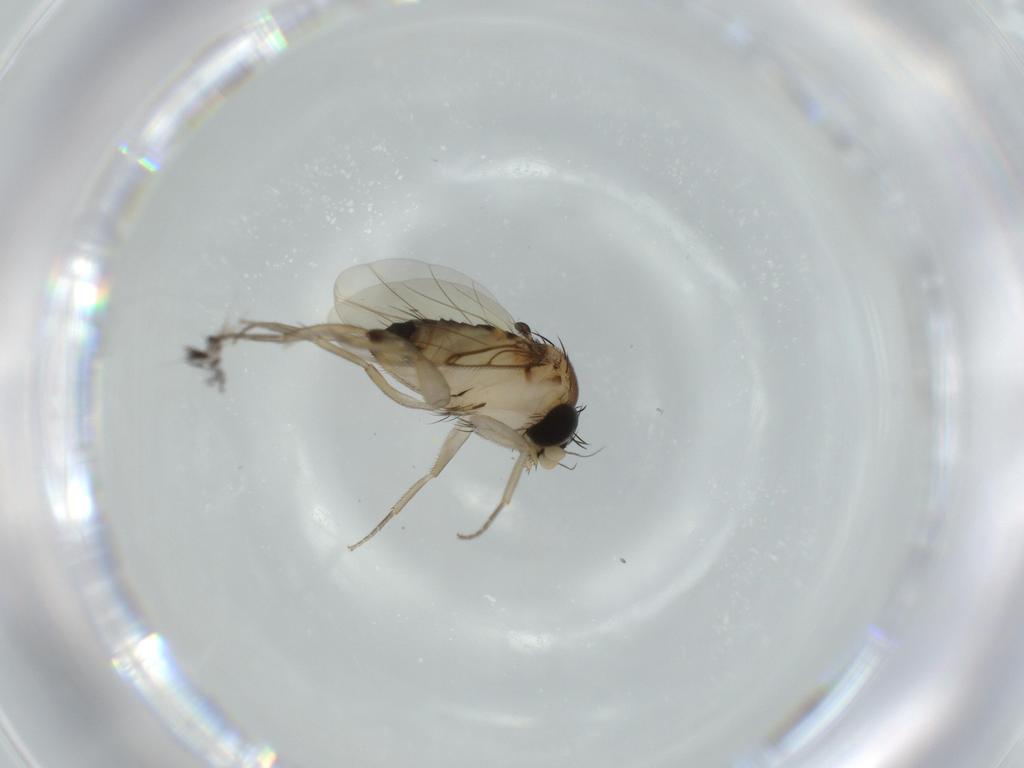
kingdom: Animalia
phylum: Arthropoda
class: Insecta
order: Diptera
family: Phoridae
